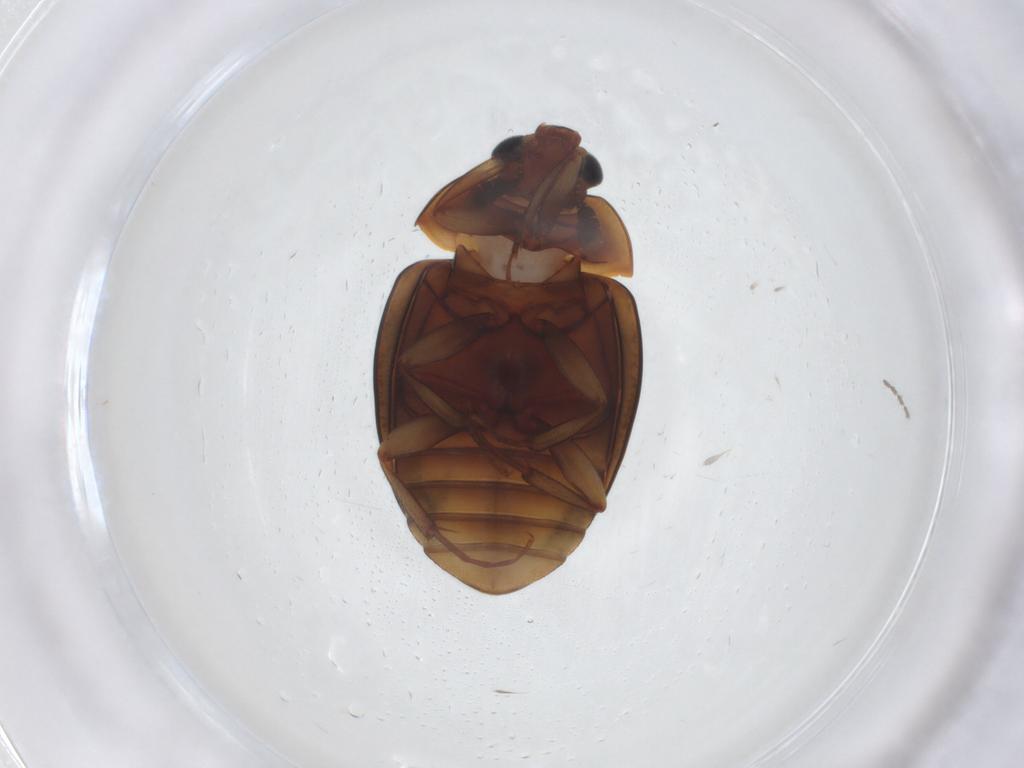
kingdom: Animalia
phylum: Arthropoda
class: Insecta
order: Coleoptera
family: Nitidulidae
